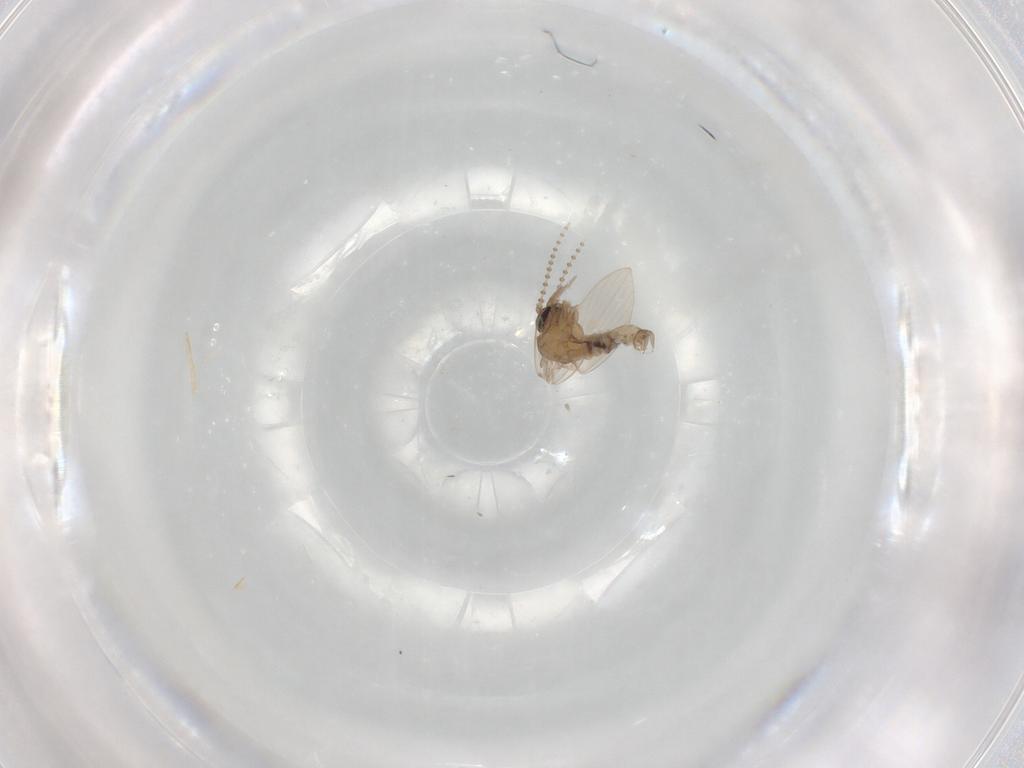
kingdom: Animalia
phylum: Arthropoda
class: Insecta
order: Diptera
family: Psychodidae
